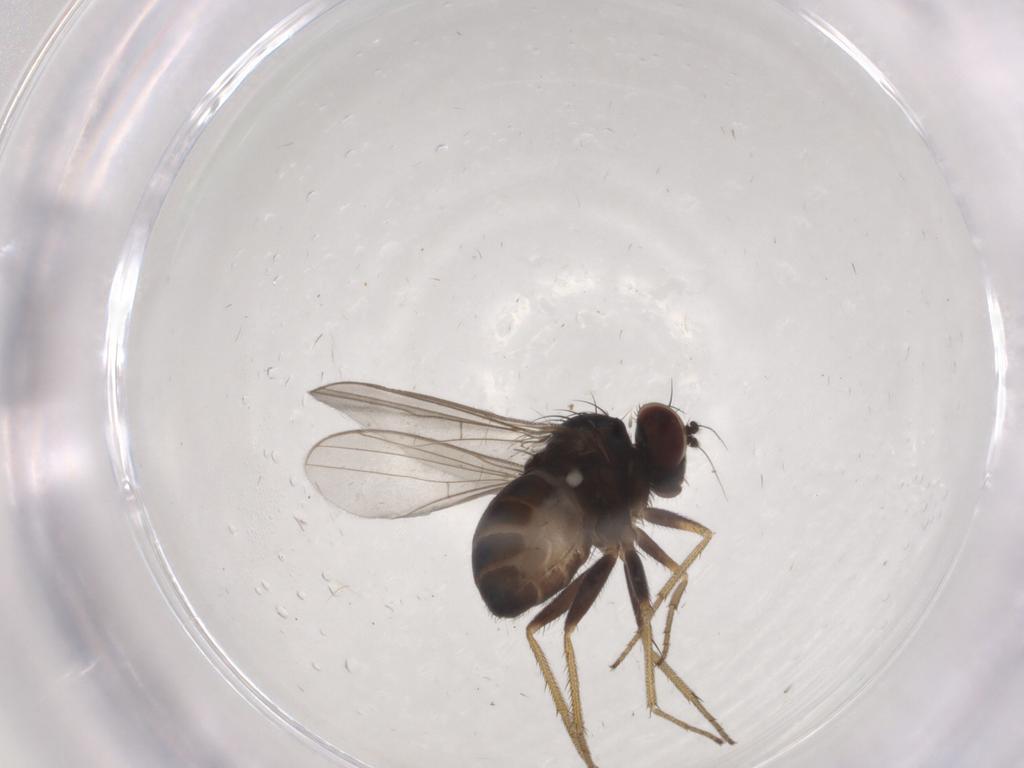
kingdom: Animalia
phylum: Arthropoda
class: Insecta
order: Diptera
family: Dolichopodidae
